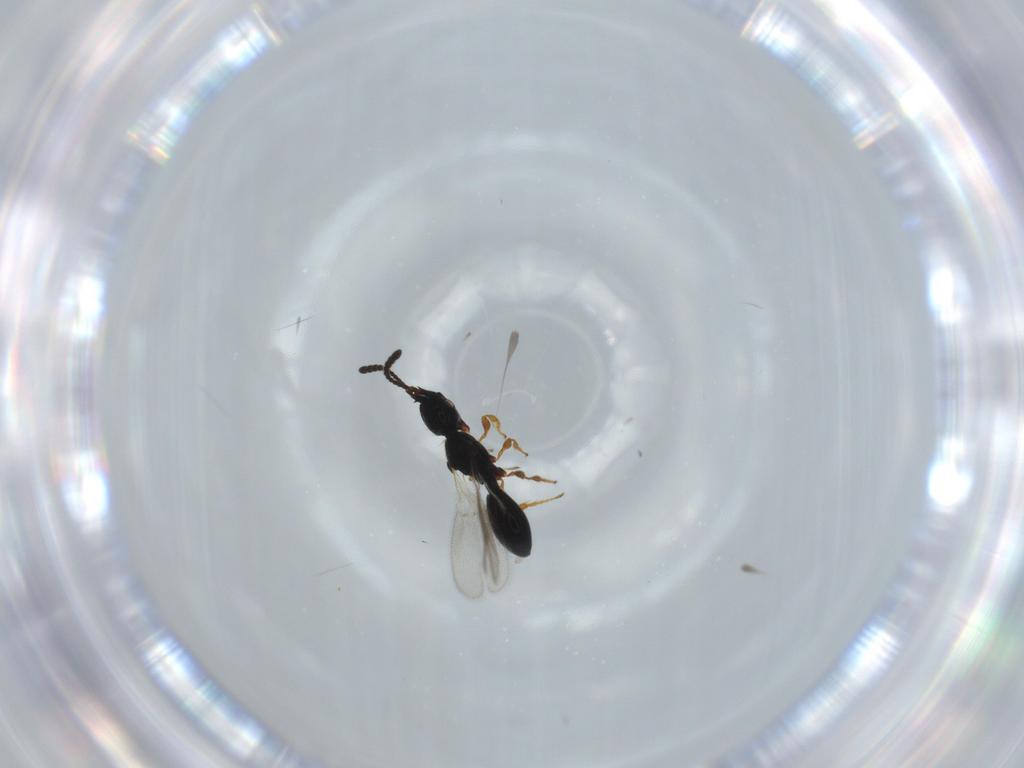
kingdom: Animalia
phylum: Arthropoda
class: Insecta
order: Hymenoptera
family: Diapriidae
